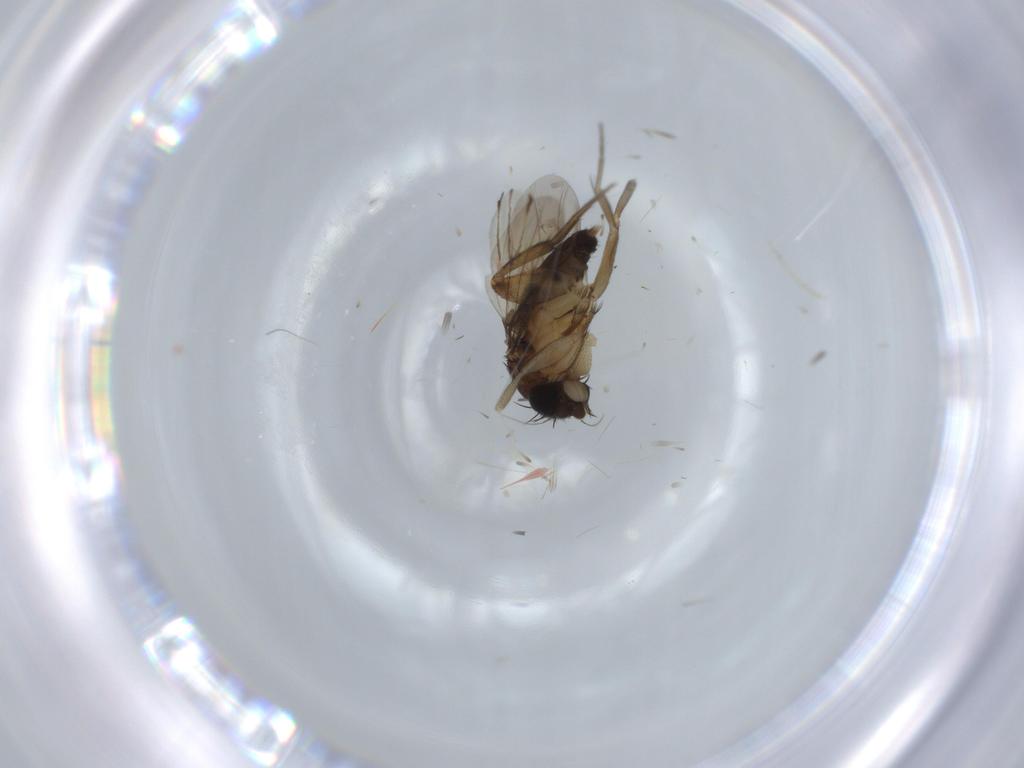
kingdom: Animalia
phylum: Arthropoda
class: Insecta
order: Diptera
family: Phoridae
